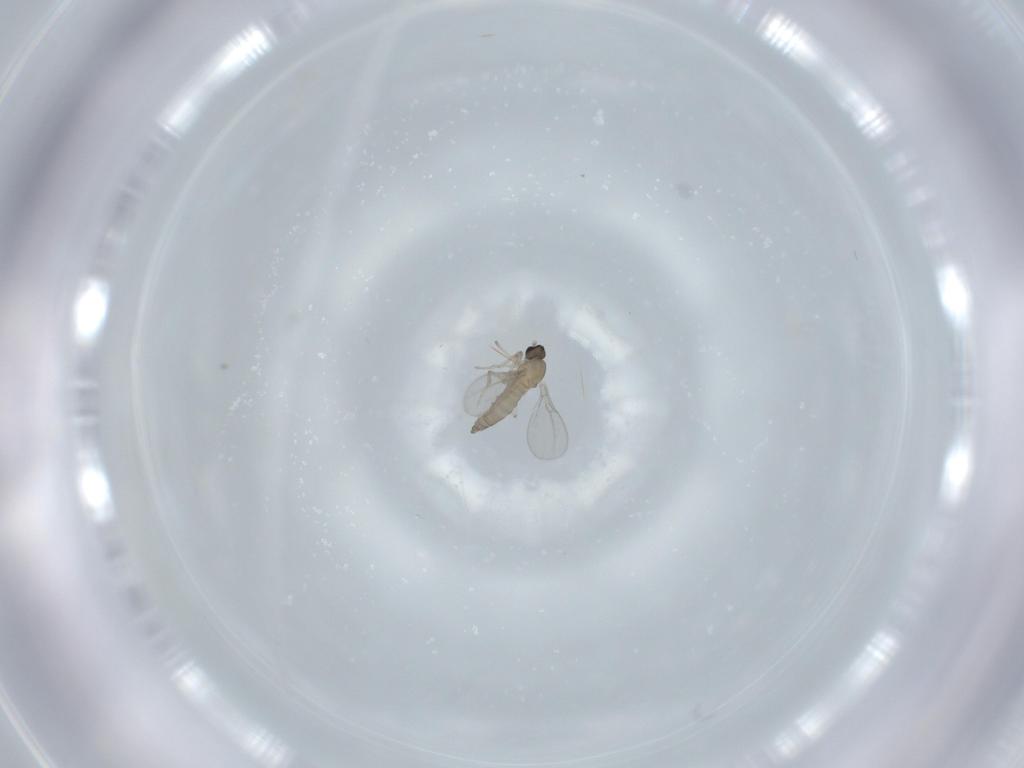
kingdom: Animalia
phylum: Arthropoda
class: Insecta
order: Diptera
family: Cecidomyiidae
